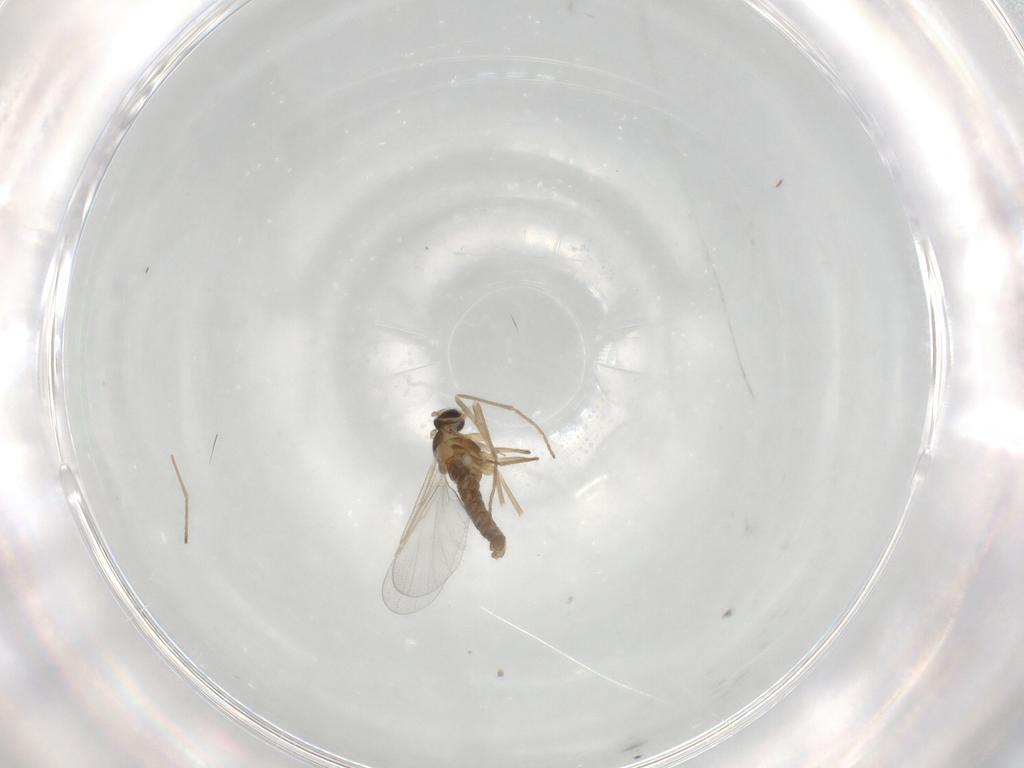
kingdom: Animalia
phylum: Arthropoda
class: Insecta
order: Diptera
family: Cecidomyiidae
